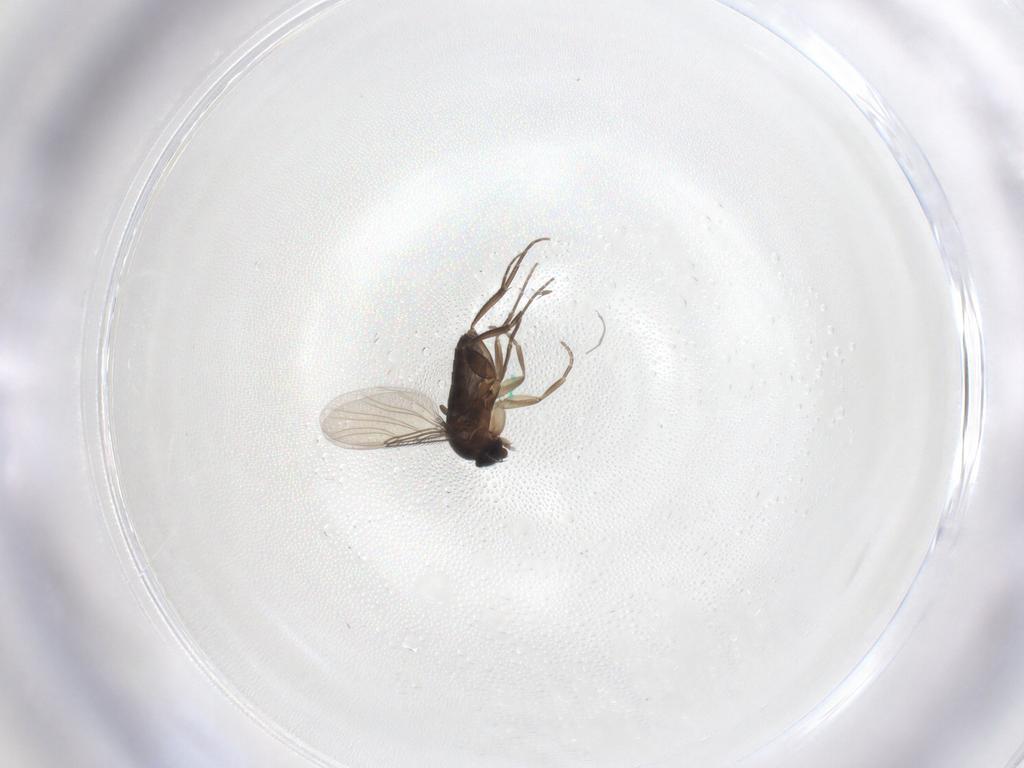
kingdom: Animalia
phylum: Arthropoda
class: Insecta
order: Diptera
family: Phoridae
